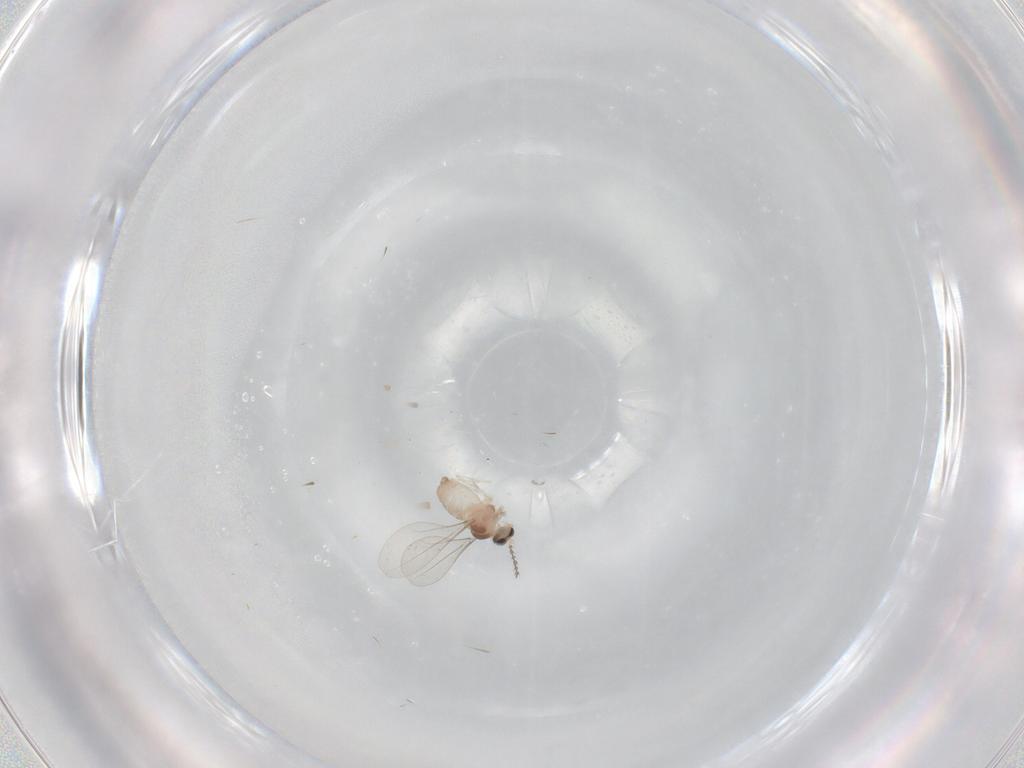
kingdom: Animalia
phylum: Arthropoda
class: Insecta
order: Diptera
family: Cecidomyiidae
